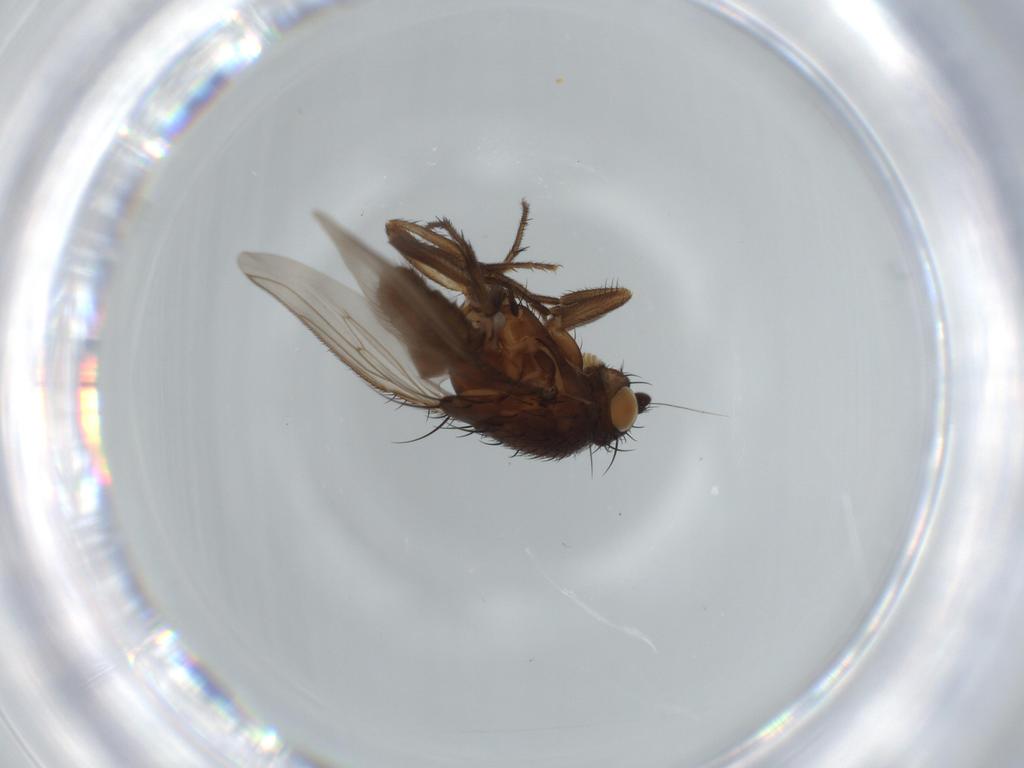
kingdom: Animalia
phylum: Arthropoda
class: Insecta
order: Diptera
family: Sphaeroceridae
